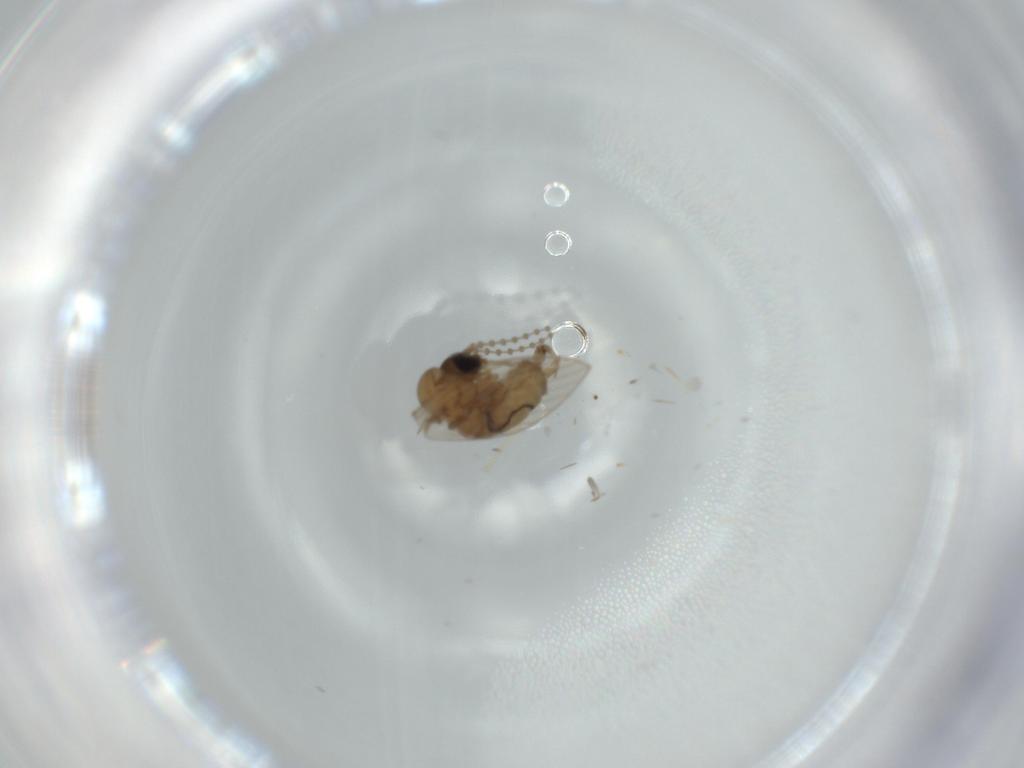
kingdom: Animalia
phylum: Arthropoda
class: Insecta
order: Diptera
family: Psychodidae
